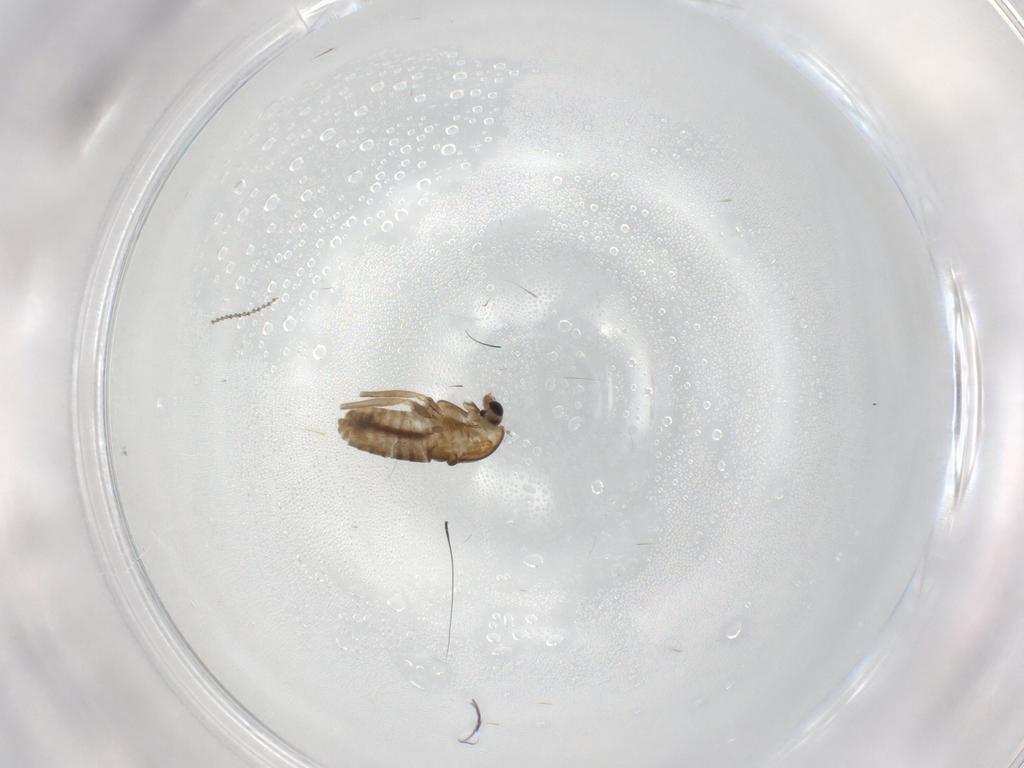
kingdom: Animalia
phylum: Arthropoda
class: Insecta
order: Diptera
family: Dolichopodidae
